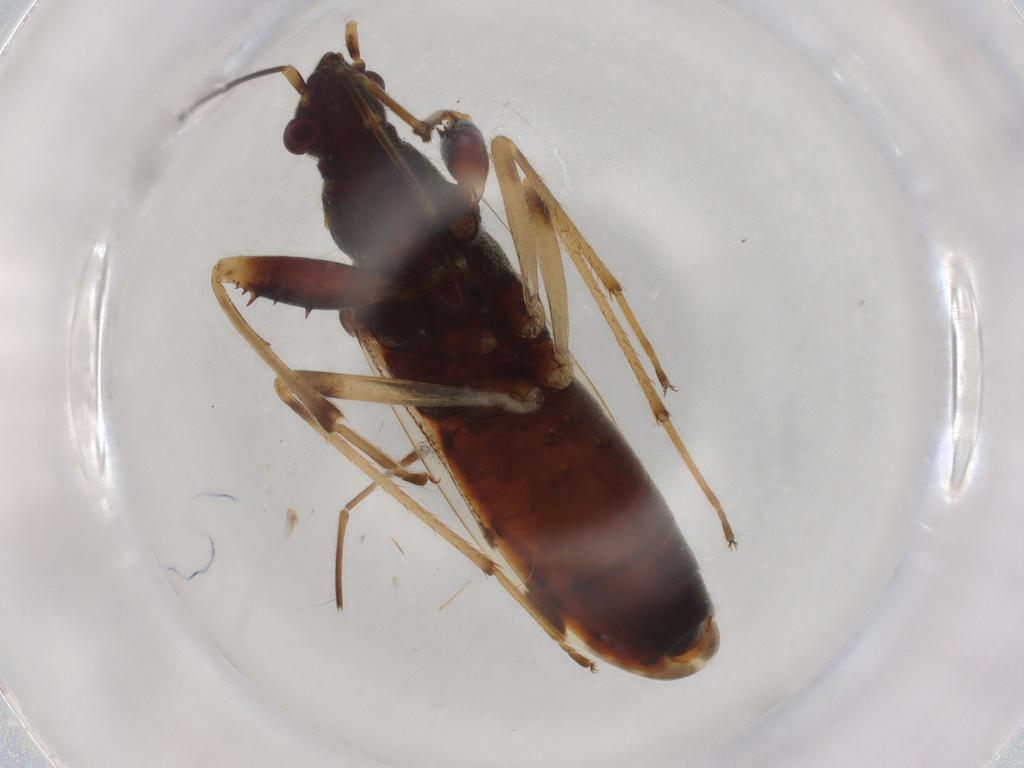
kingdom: Animalia
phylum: Arthropoda
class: Insecta
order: Hemiptera
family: Rhyparochromidae
